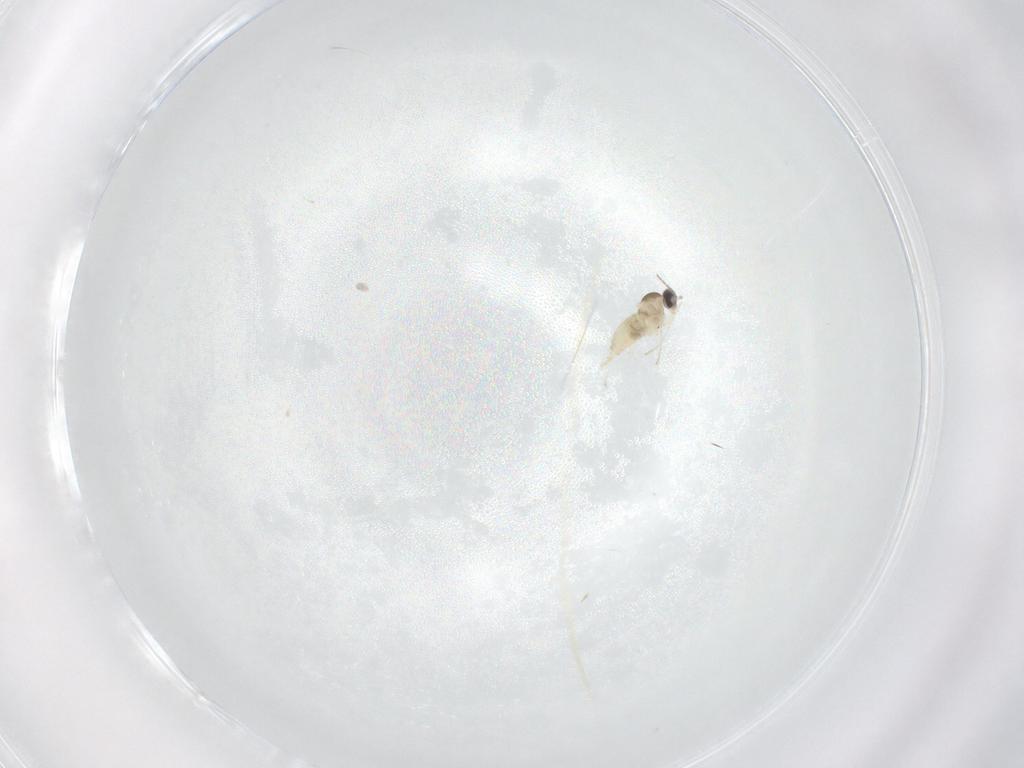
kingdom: Animalia
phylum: Arthropoda
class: Insecta
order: Diptera
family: Cecidomyiidae
